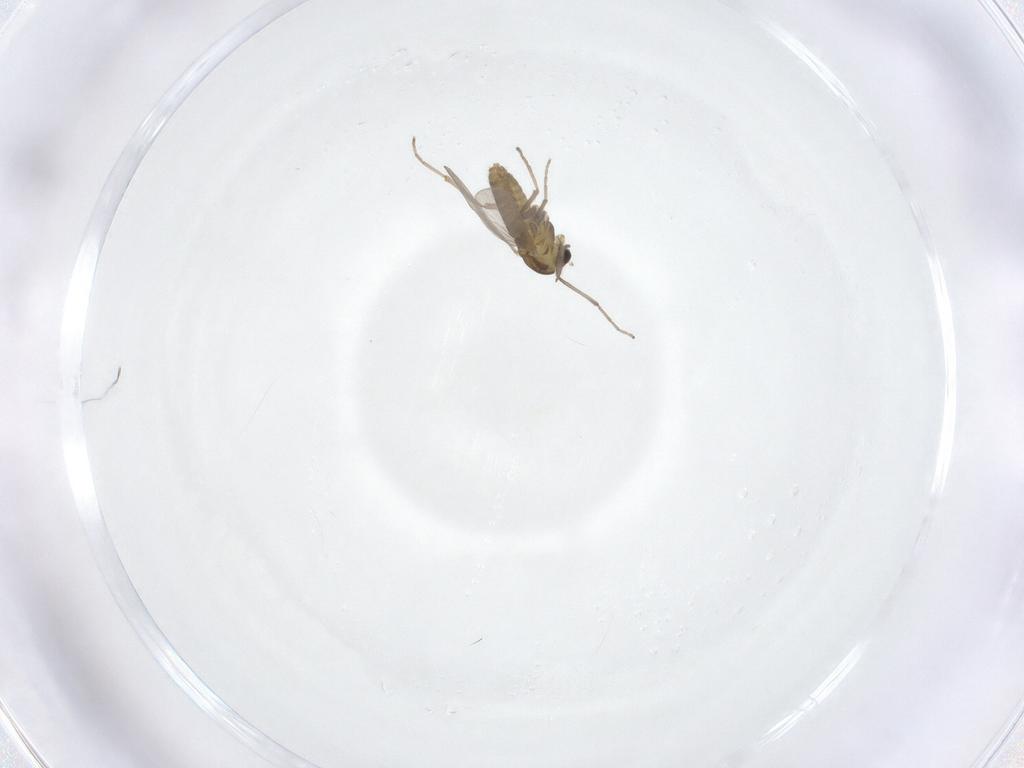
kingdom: Animalia
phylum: Arthropoda
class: Insecta
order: Diptera
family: Chironomidae
